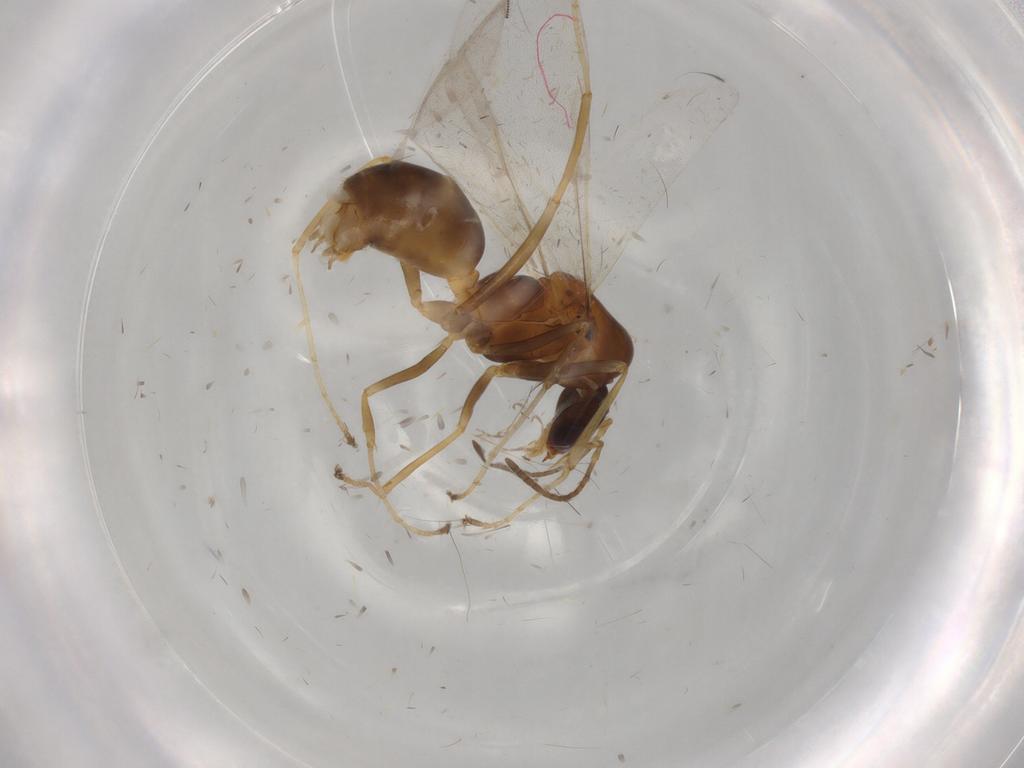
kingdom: Animalia
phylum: Arthropoda
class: Insecta
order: Hymenoptera
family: Formicidae
